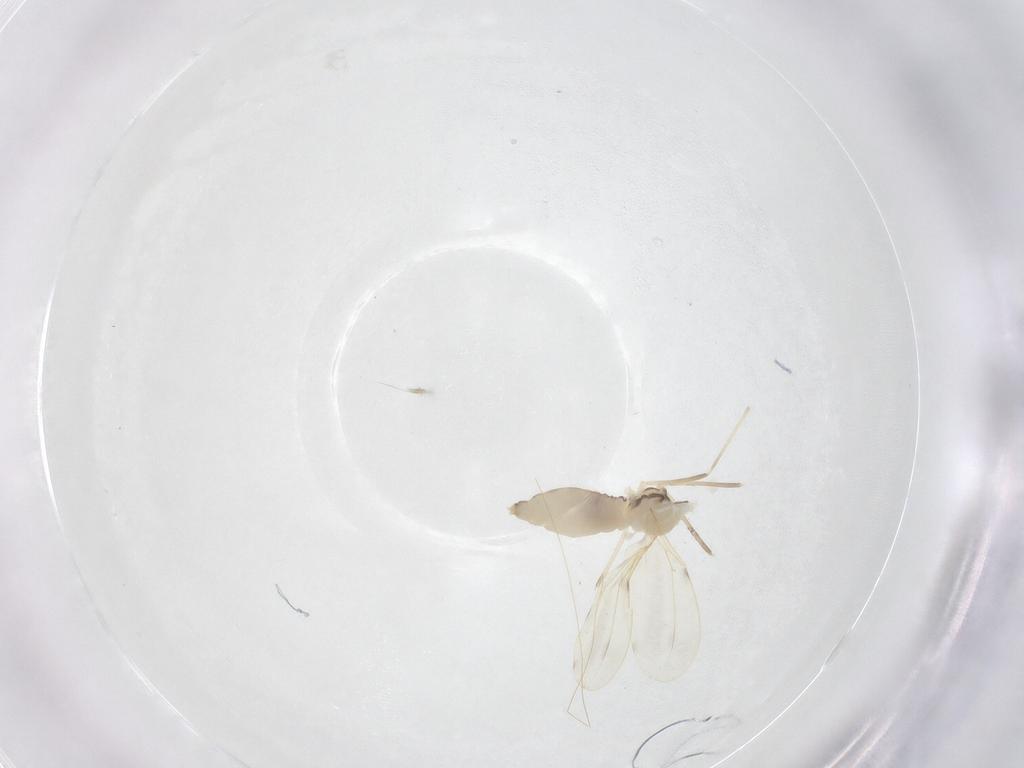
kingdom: Animalia
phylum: Arthropoda
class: Insecta
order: Diptera
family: Cecidomyiidae
